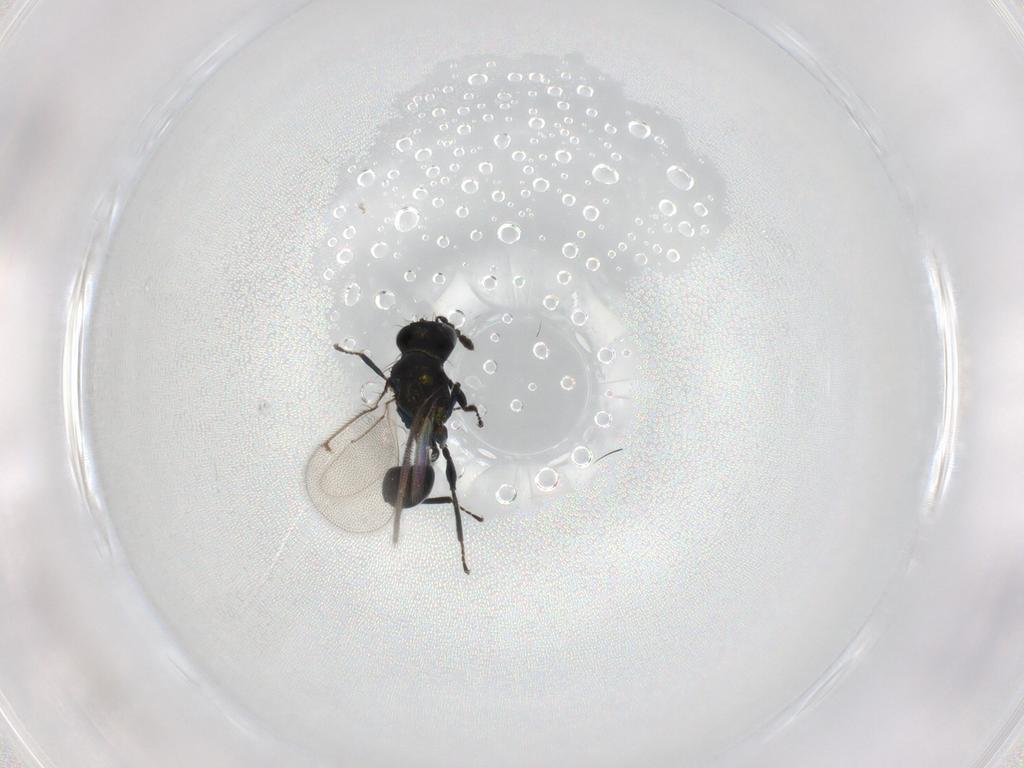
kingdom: Animalia
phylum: Arthropoda
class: Insecta
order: Hymenoptera
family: Eulophidae
